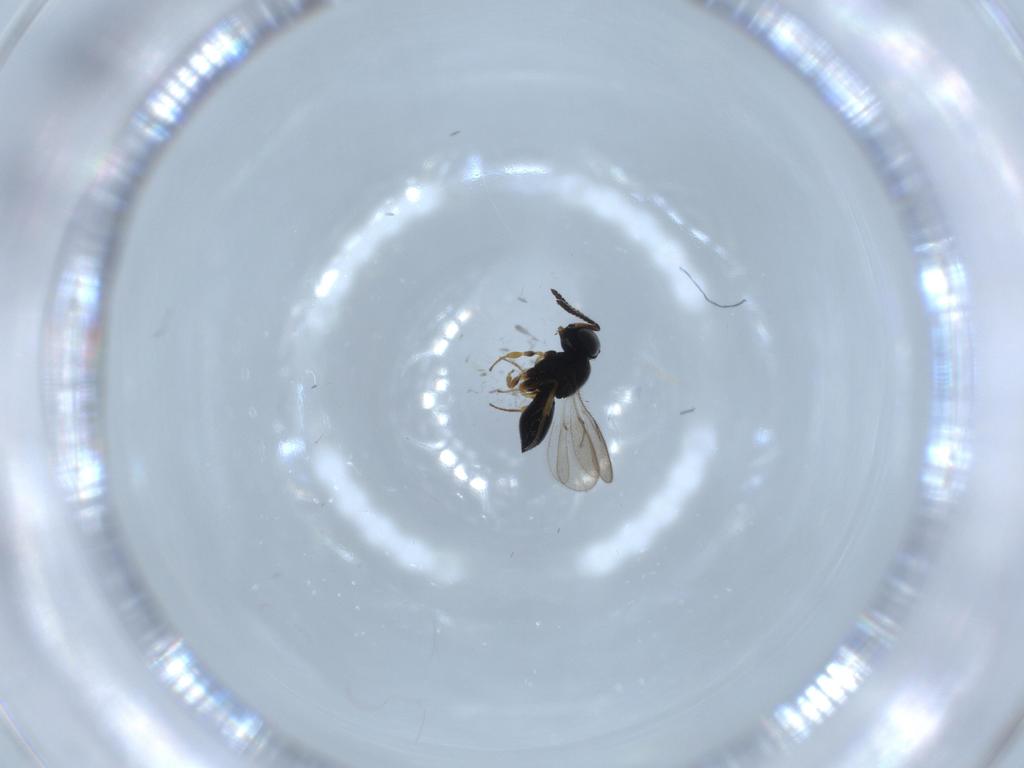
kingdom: Animalia
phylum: Arthropoda
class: Insecta
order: Hymenoptera
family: Scelionidae
